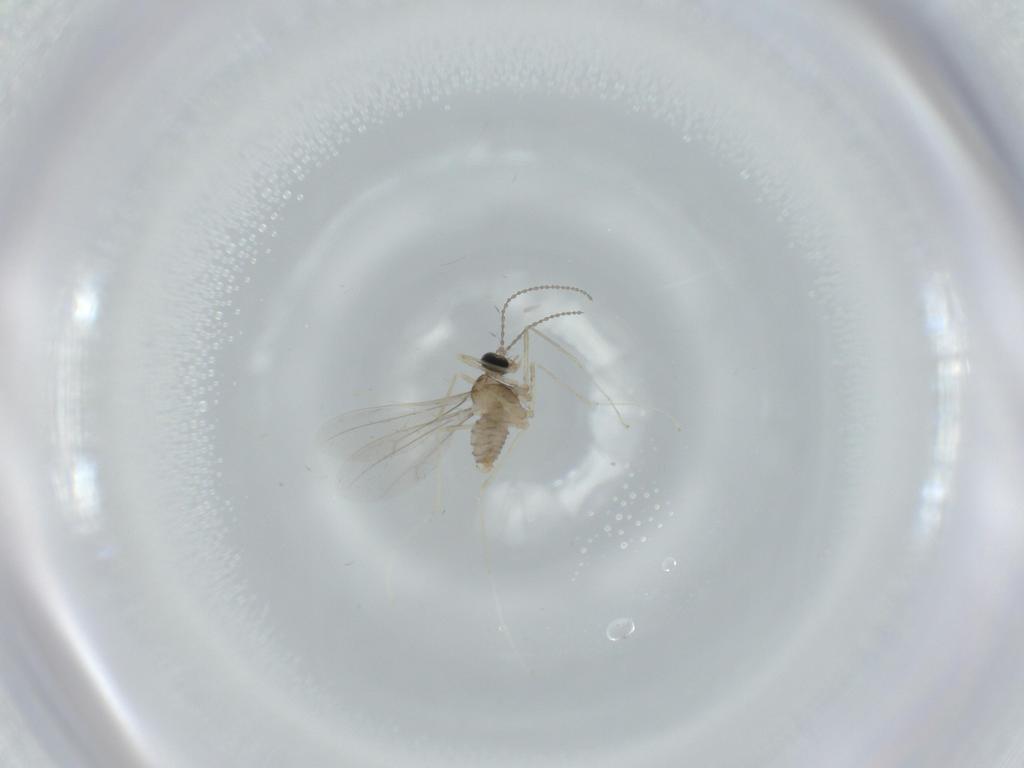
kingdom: Animalia
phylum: Arthropoda
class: Insecta
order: Diptera
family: Cecidomyiidae
